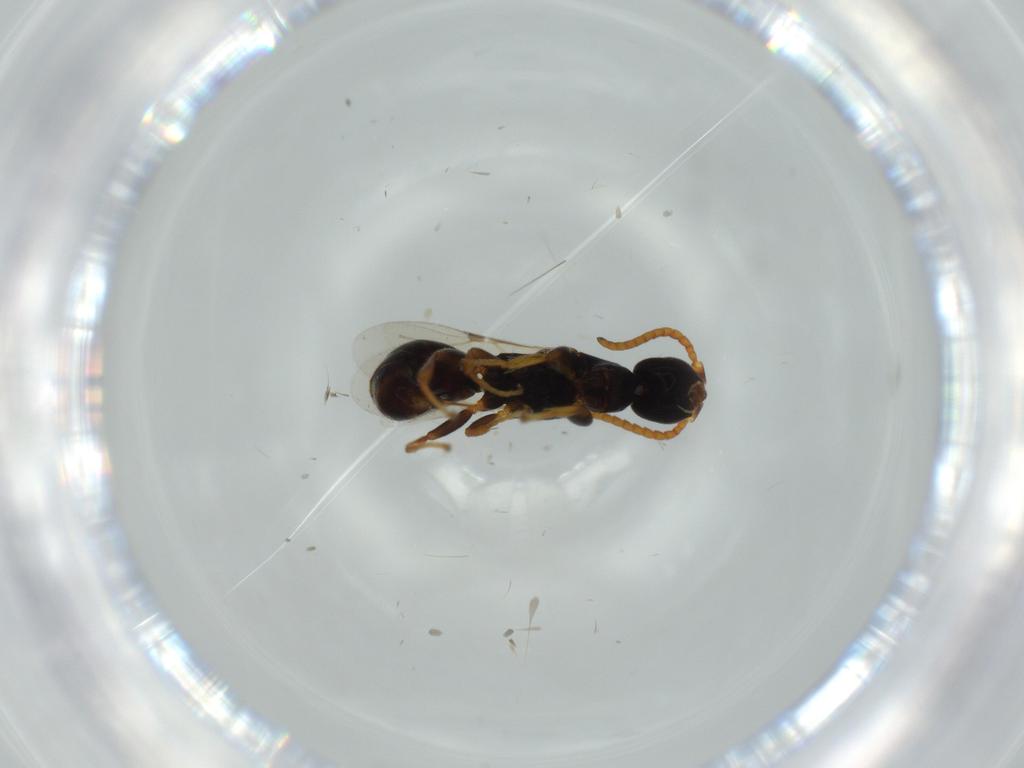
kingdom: Animalia
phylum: Arthropoda
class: Insecta
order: Hymenoptera
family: Bethylidae
